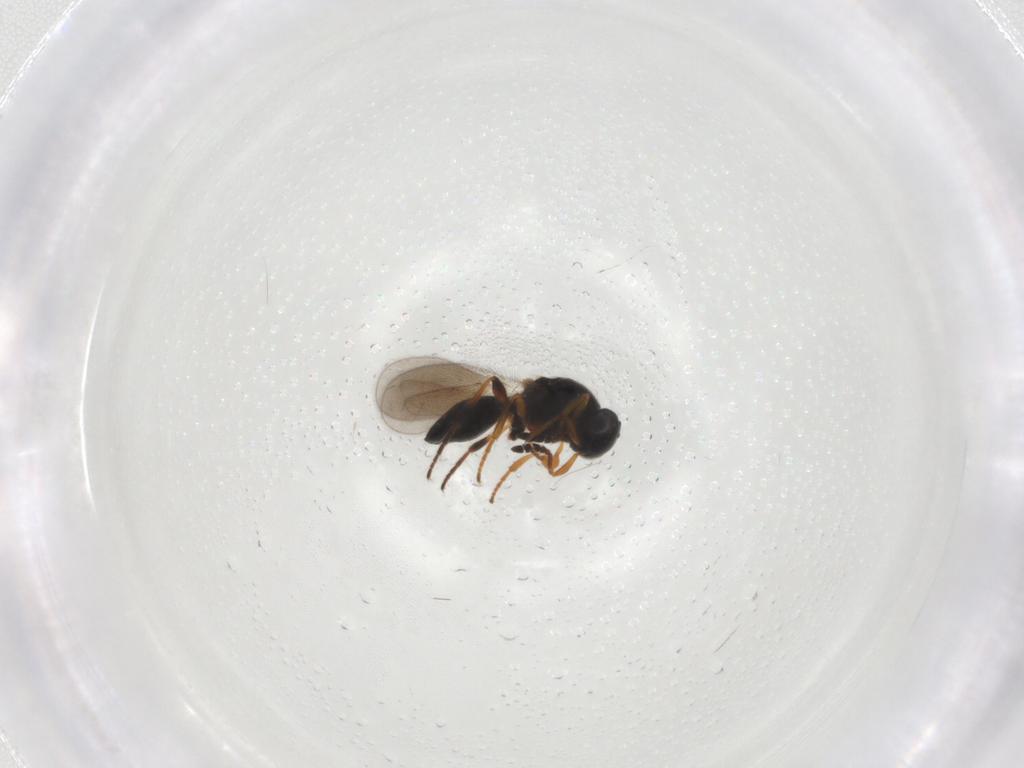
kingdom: Animalia
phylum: Arthropoda
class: Insecta
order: Hymenoptera
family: Platygastridae
